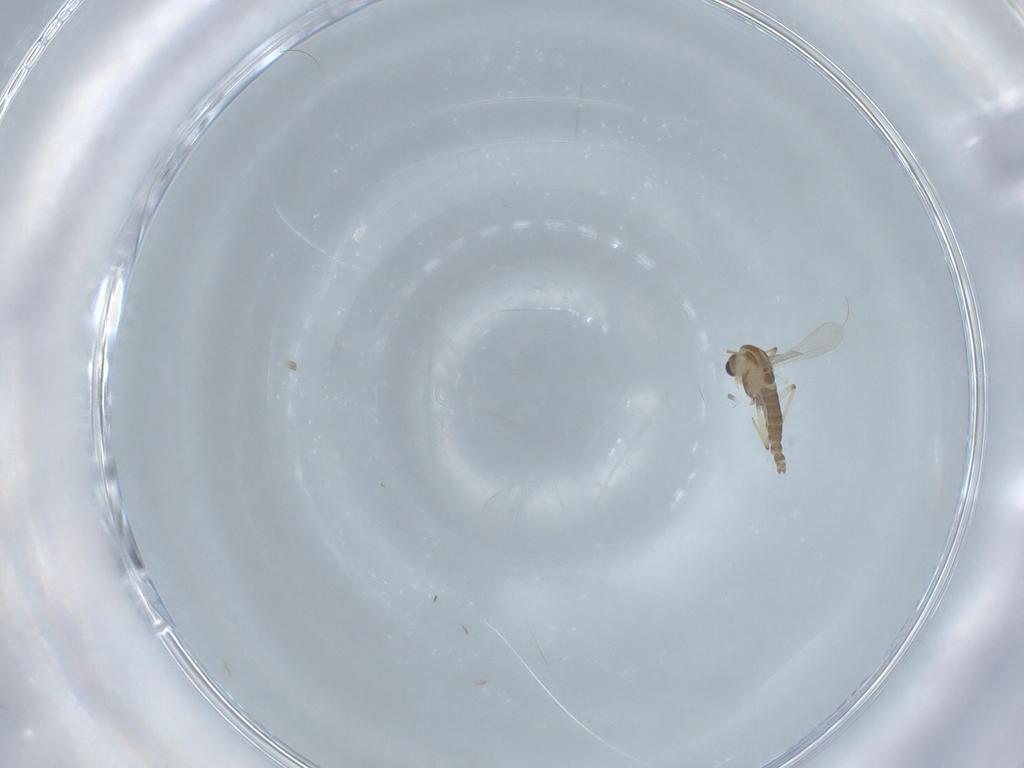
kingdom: Animalia
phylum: Arthropoda
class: Insecta
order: Diptera
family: Chironomidae
